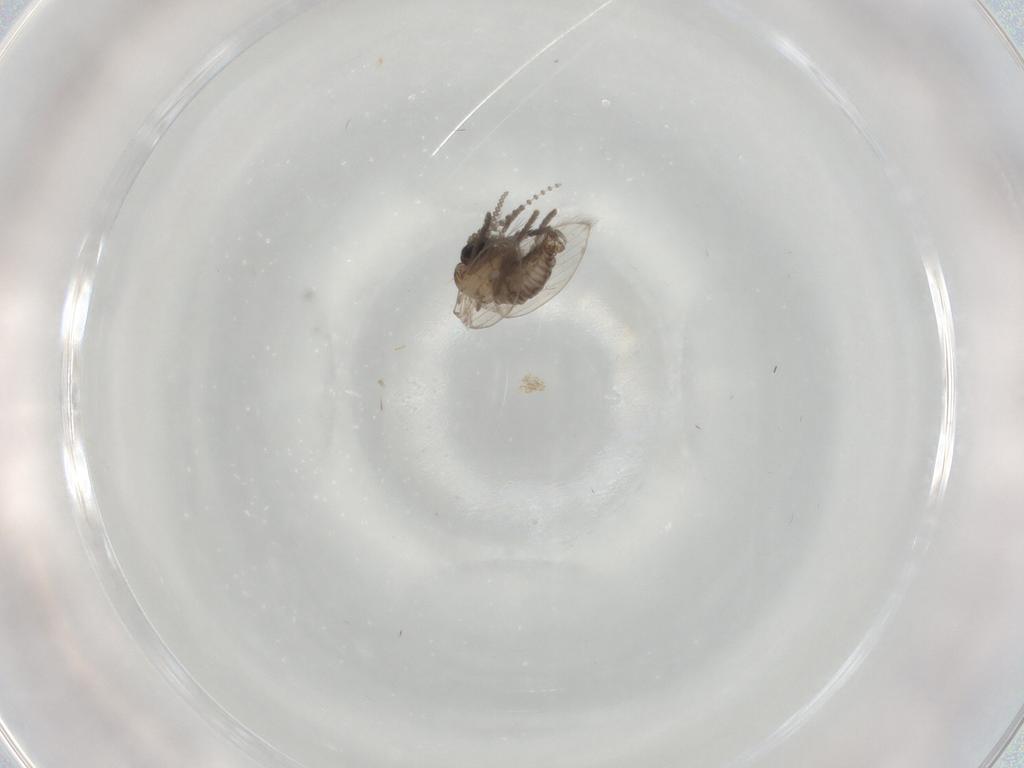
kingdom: Animalia
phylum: Arthropoda
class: Insecta
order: Diptera
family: Psychodidae
